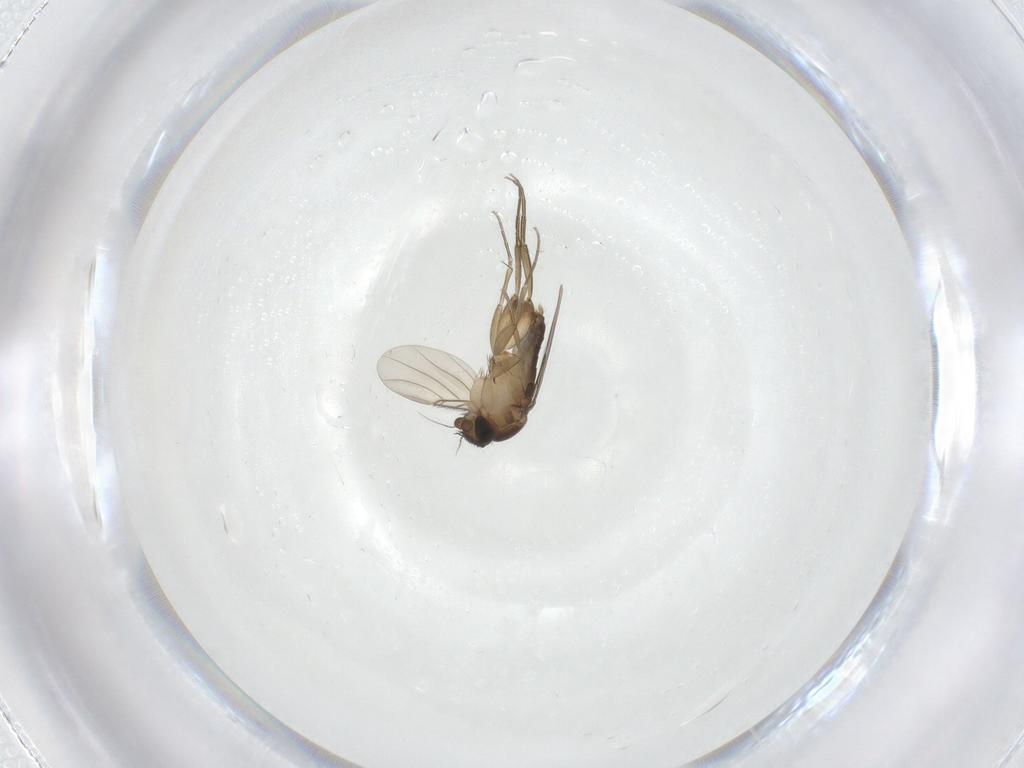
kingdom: Animalia
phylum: Arthropoda
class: Insecta
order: Diptera
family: Phoridae
